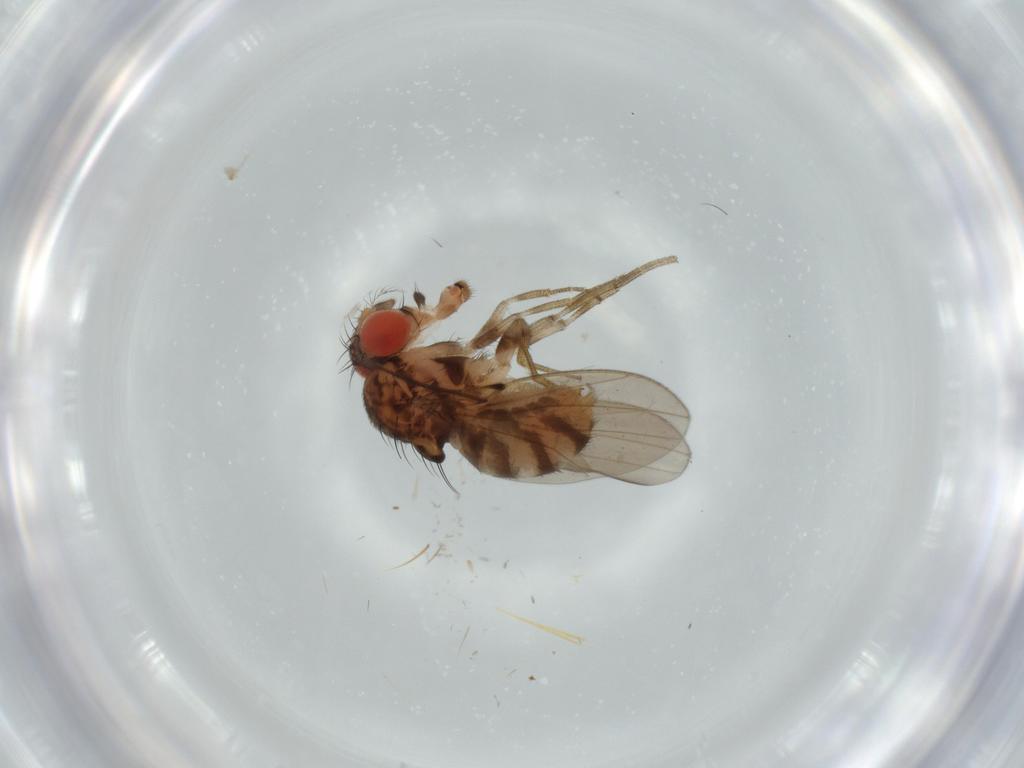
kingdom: Animalia
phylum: Arthropoda
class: Insecta
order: Diptera
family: Drosophilidae
